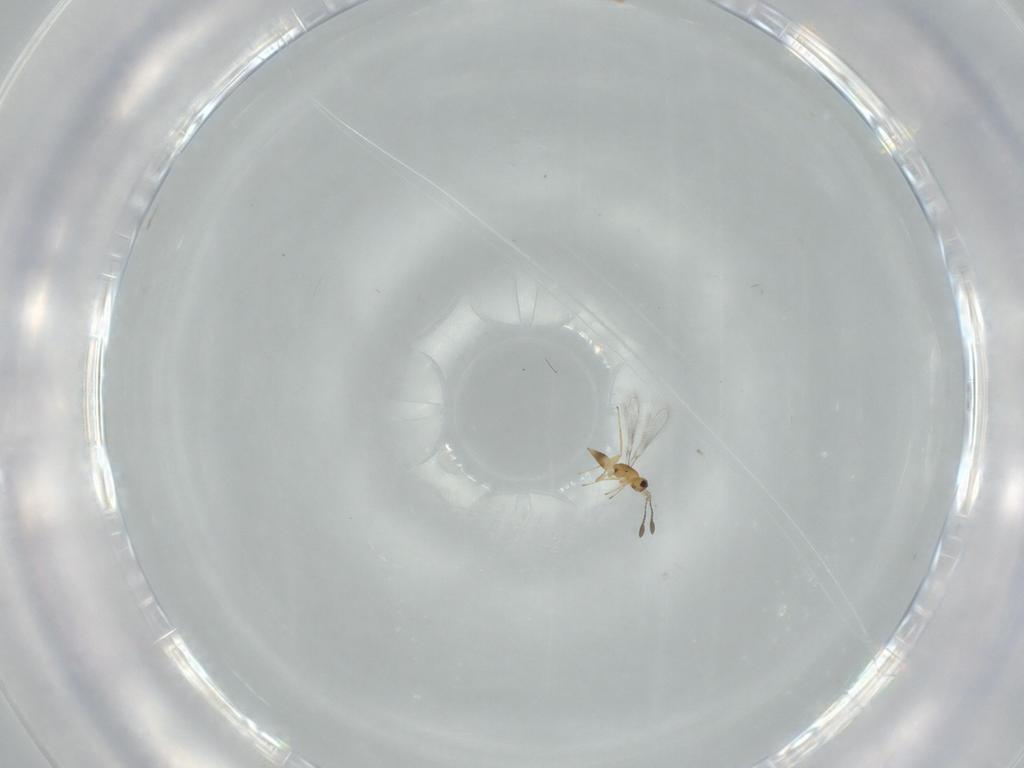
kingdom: Animalia
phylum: Arthropoda
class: Insecta
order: Hymenoptera
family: Mymaridae
